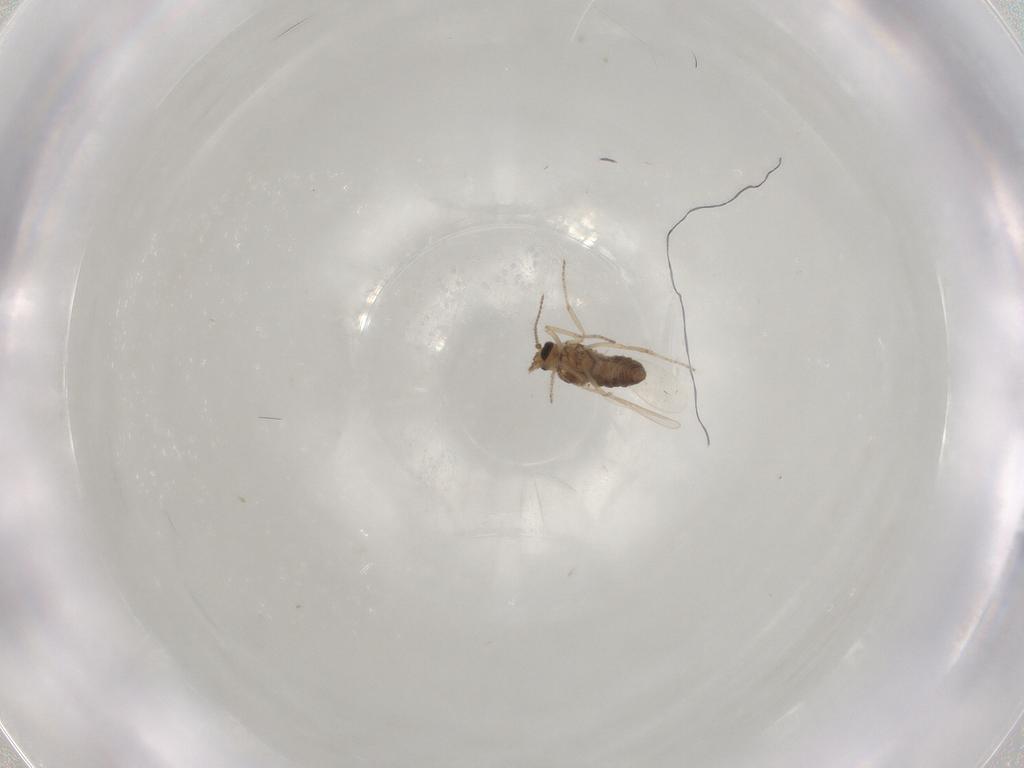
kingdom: Animalia
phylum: Arthropoda
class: Insecta
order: Diptera
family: Ceratopogonidae
